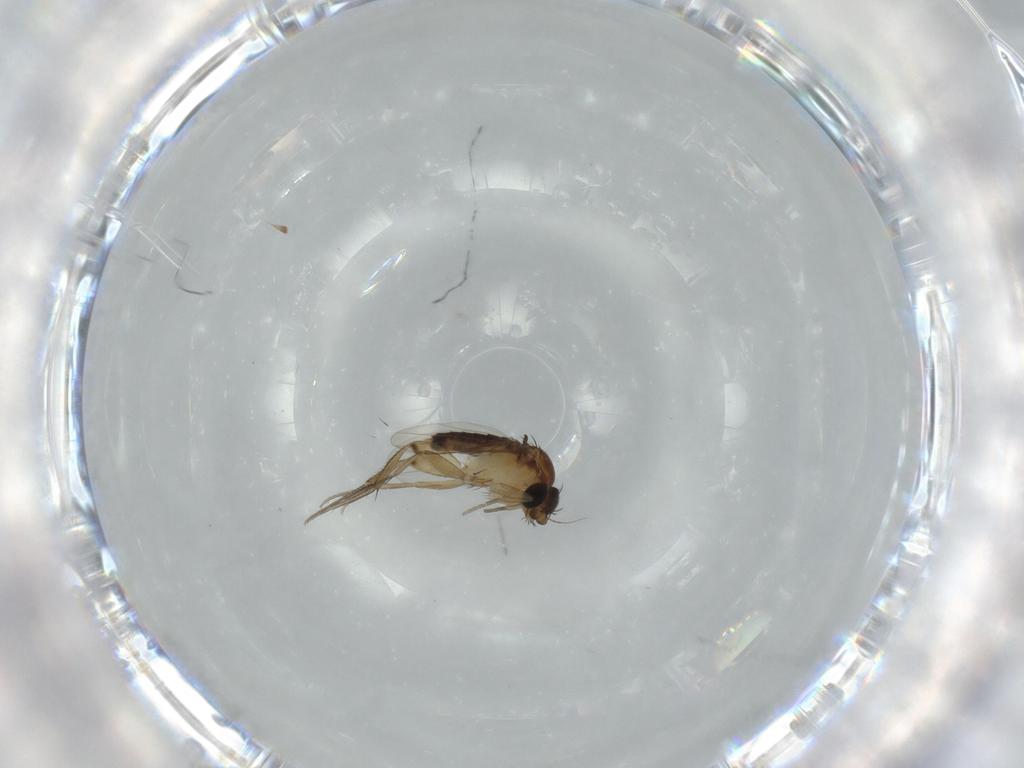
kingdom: Animalia
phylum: Arthropoda
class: Insecta
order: Diptera
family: Phoridae
